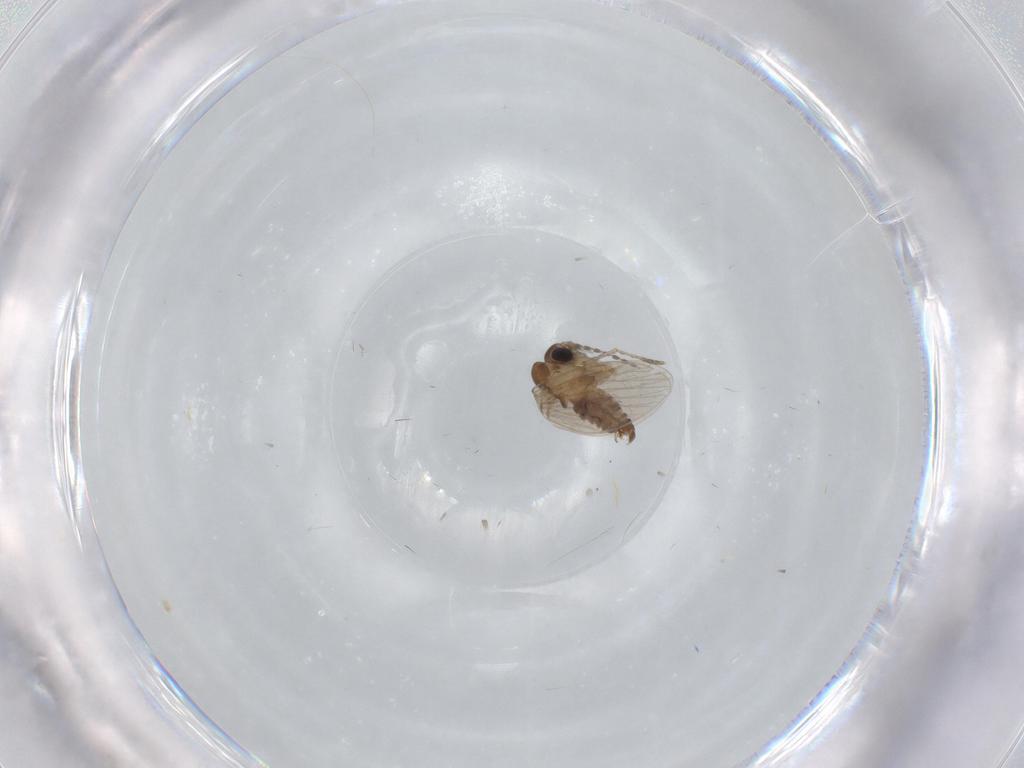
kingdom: Animalia
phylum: Arthropoda
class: Insecta
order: Diptera
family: Psychodidae
